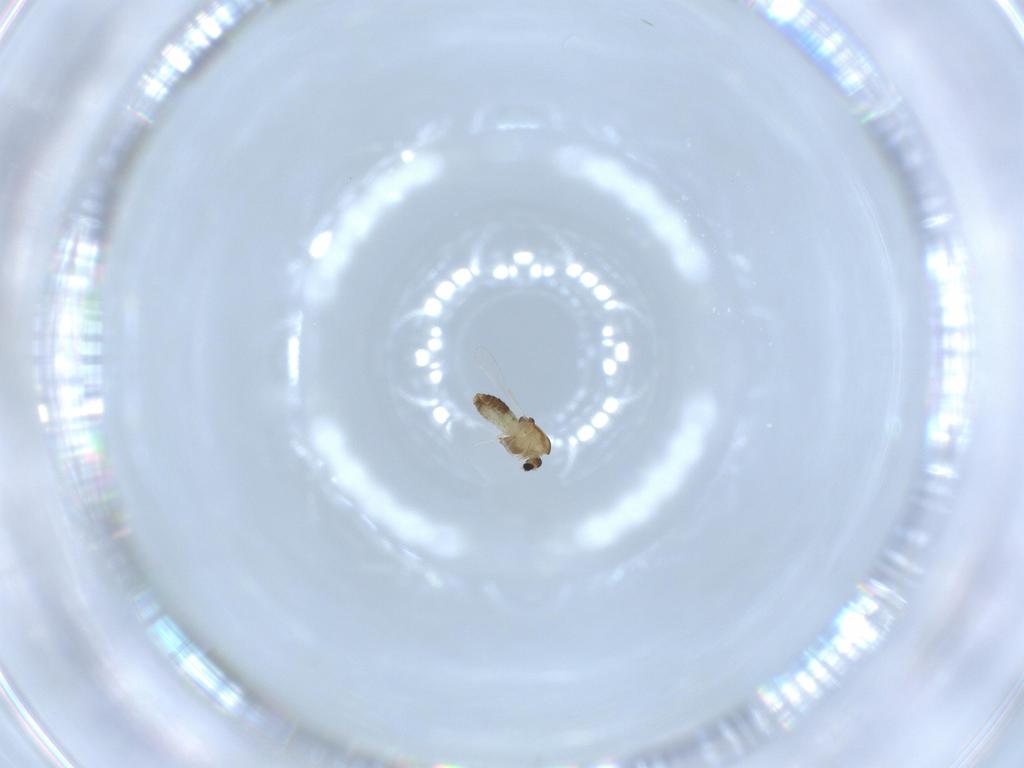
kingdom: Animalia
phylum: Arthropoda
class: Insecta
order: Diptera
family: Chironomidae
